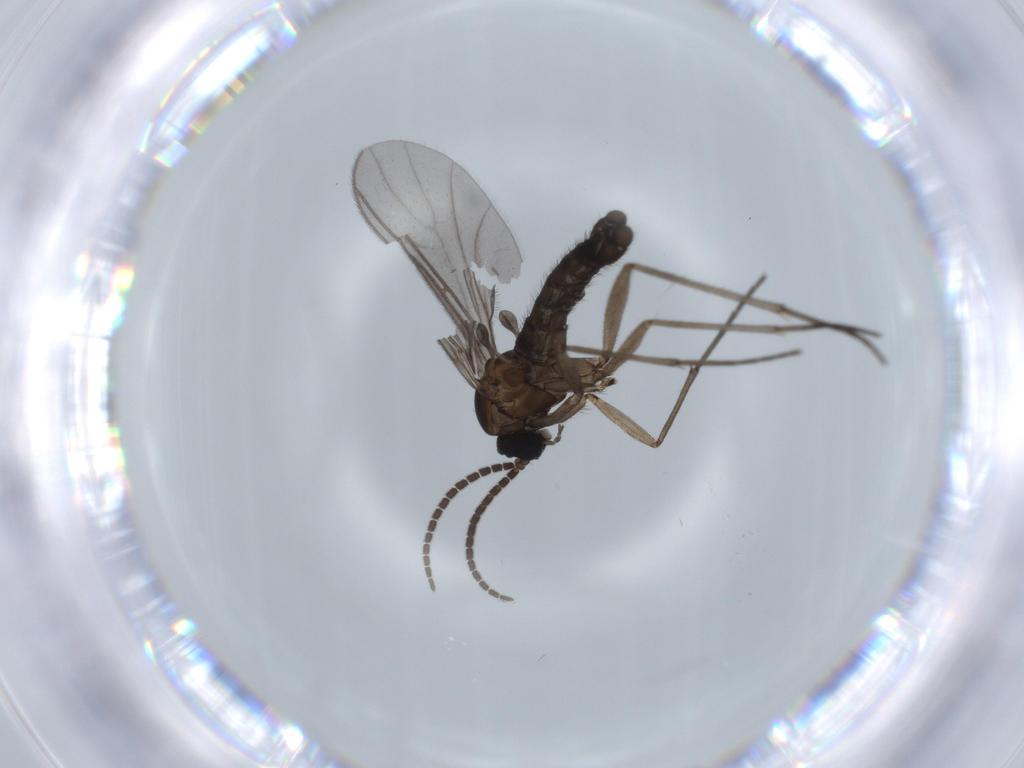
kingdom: Animalia
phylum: Arthropoda
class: Insecta
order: Diptera
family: Sciaridae
